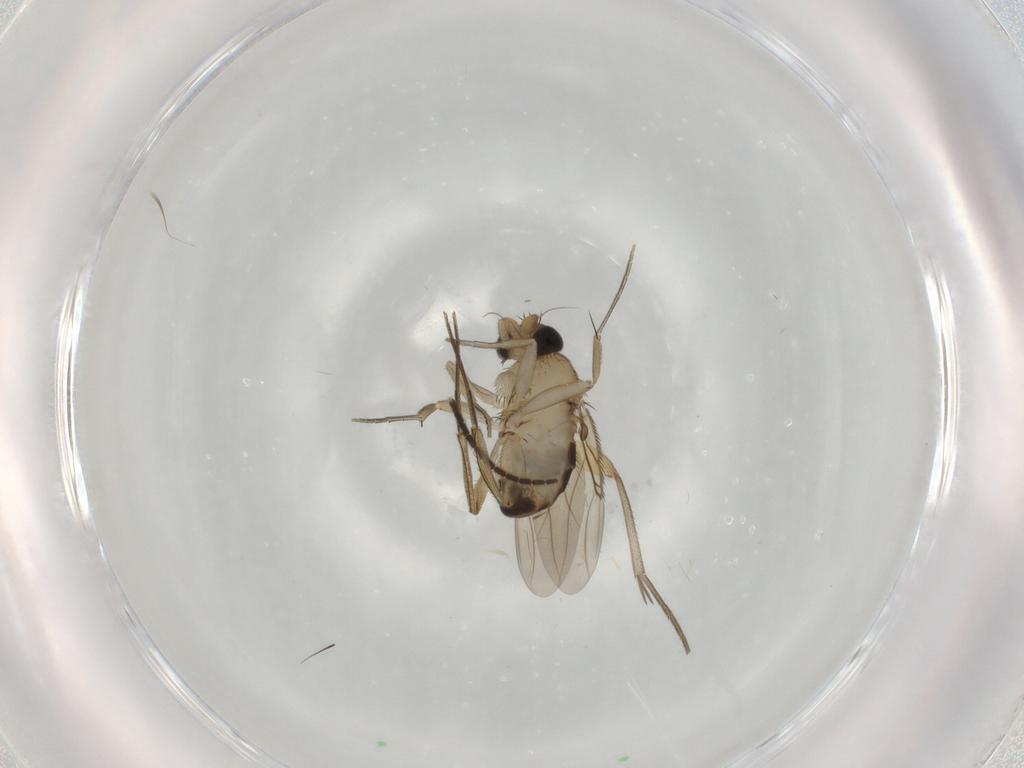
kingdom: Animalia
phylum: Arthropoda
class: Insecta
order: Diptera
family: Phoridae
